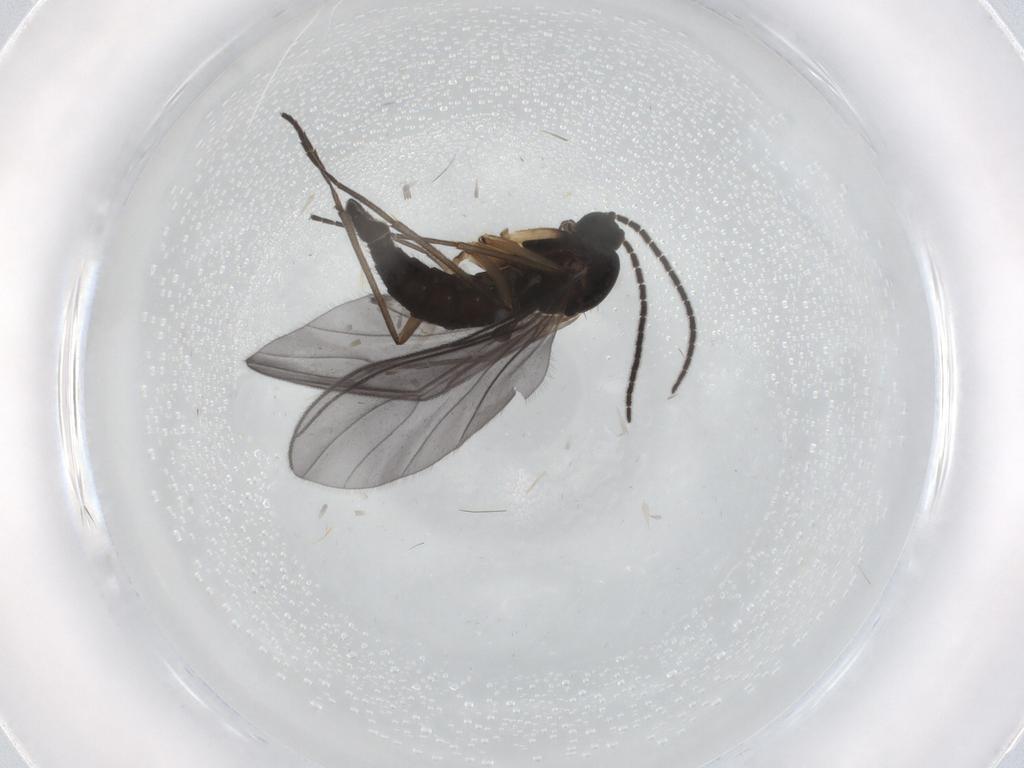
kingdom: Animalia
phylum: Arthropoda
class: Insecta
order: Diptera
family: Sciaridae
